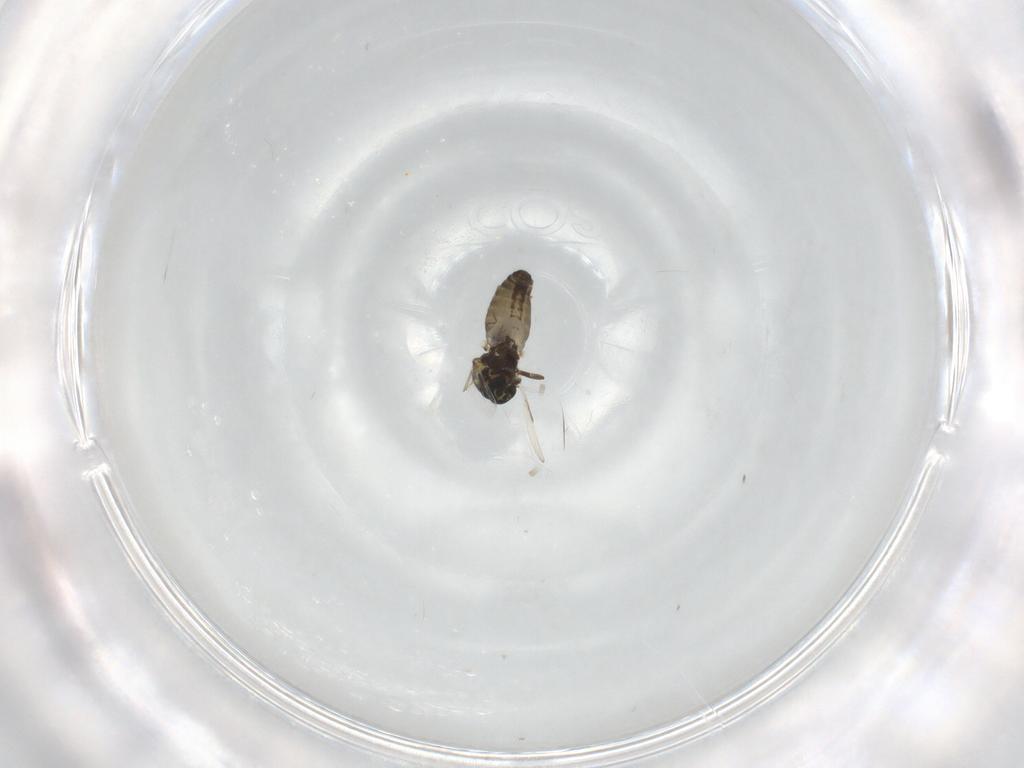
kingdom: Animalia
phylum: Arthropoda
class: Insecta
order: Diptera
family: Ceratopogonidae
